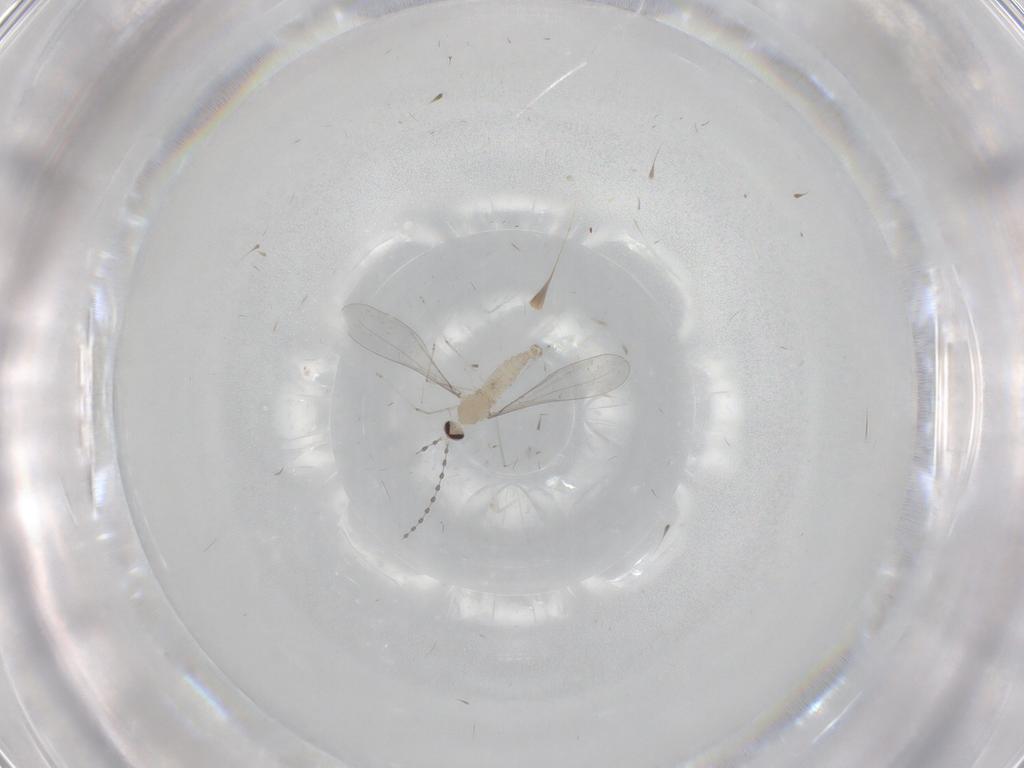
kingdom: Animalia
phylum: Arthropoda
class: Insecta
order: Diptera
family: Cecidomyiidae
